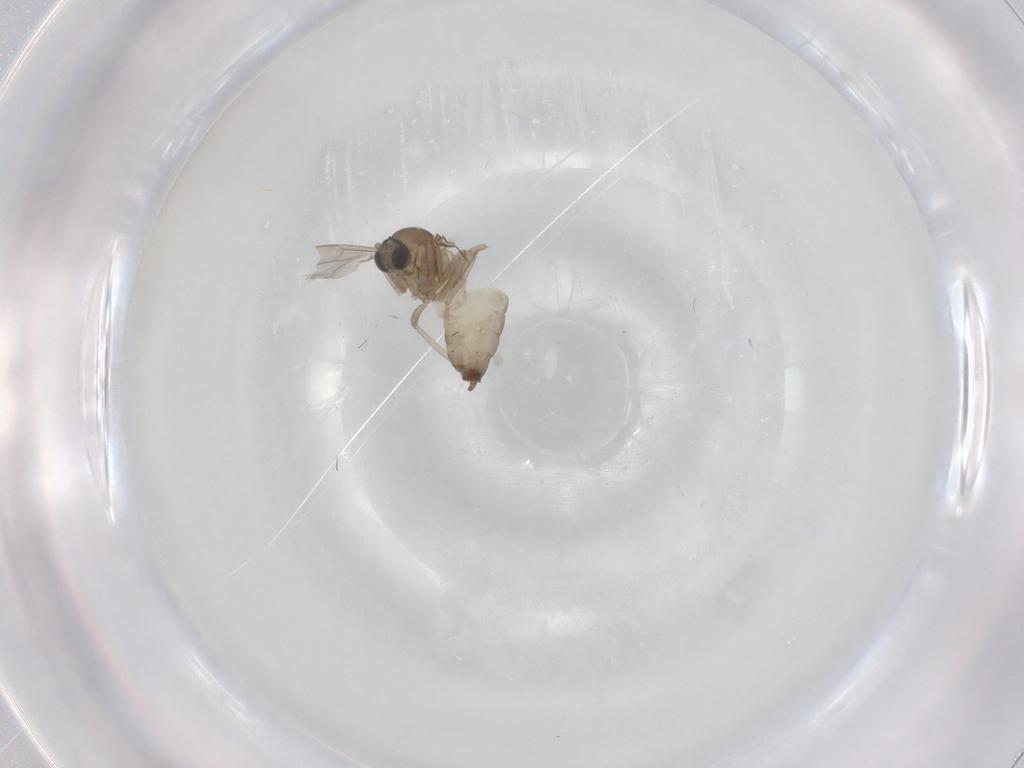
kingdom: Animalia
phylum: Arthropoda
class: Insecta
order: Diptera
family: Cecidomyiidae
